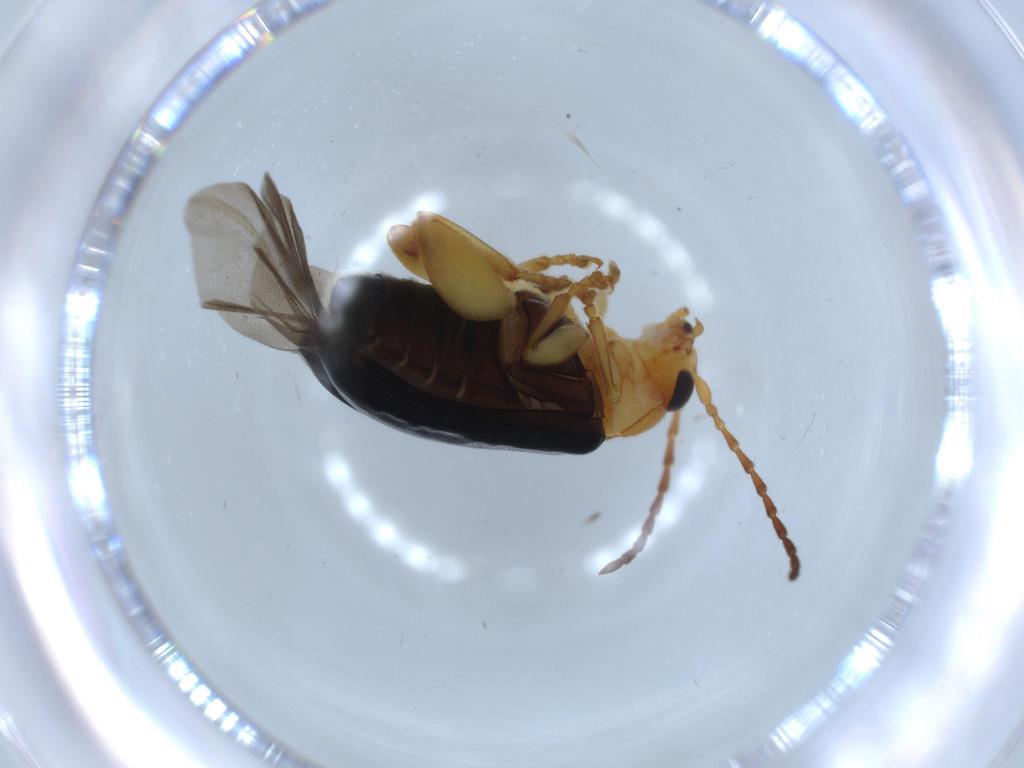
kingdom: Animalia
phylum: Arthropoda
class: Insecta
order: Coleoptera
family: Chrysomelidae
